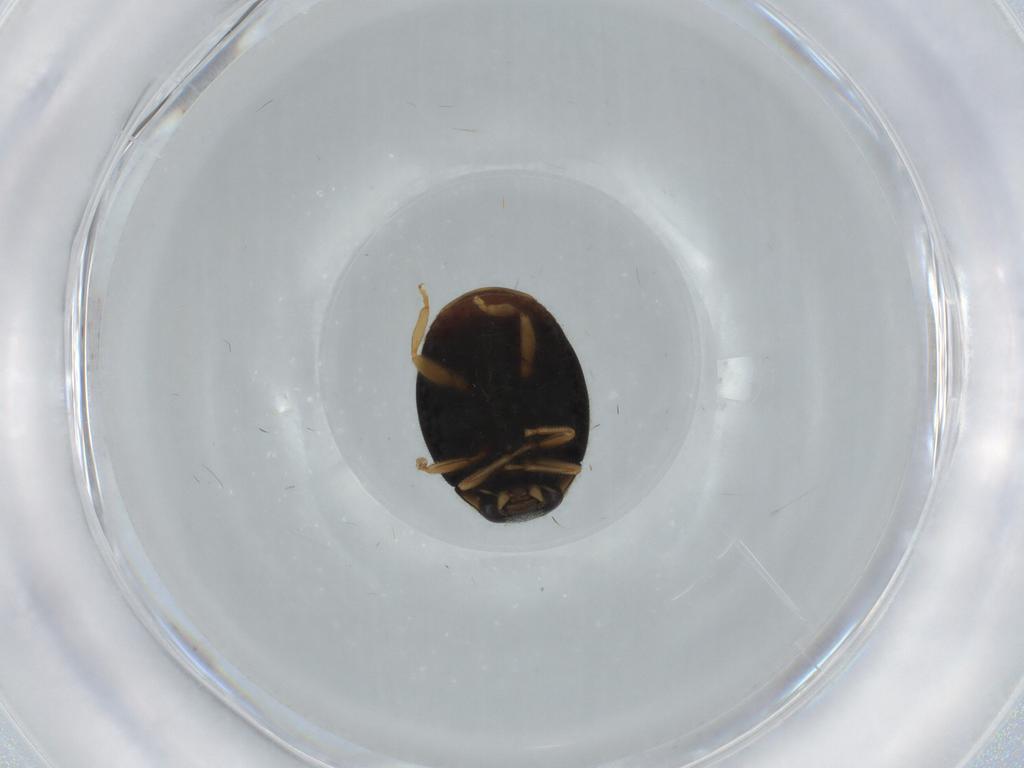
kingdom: Animalia
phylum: Arthropoda
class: Insecta
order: Coleoptera
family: Coccinellidae
